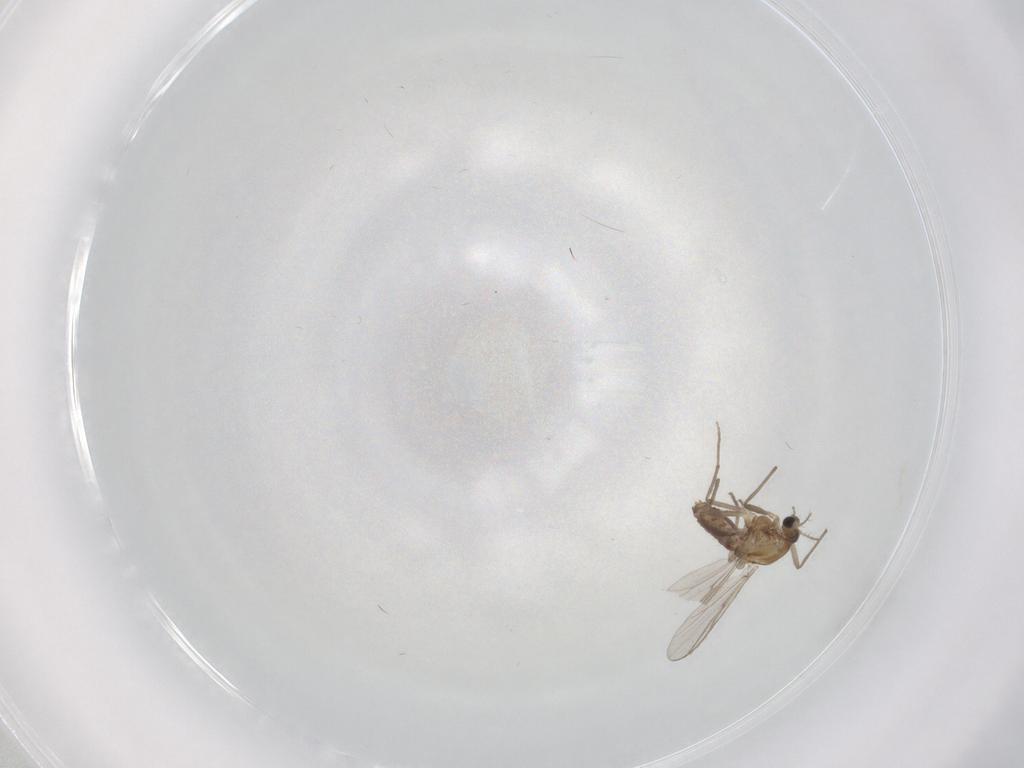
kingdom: Animalia
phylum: Arthropoda
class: Insecta
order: Diptera
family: Chironomidae
